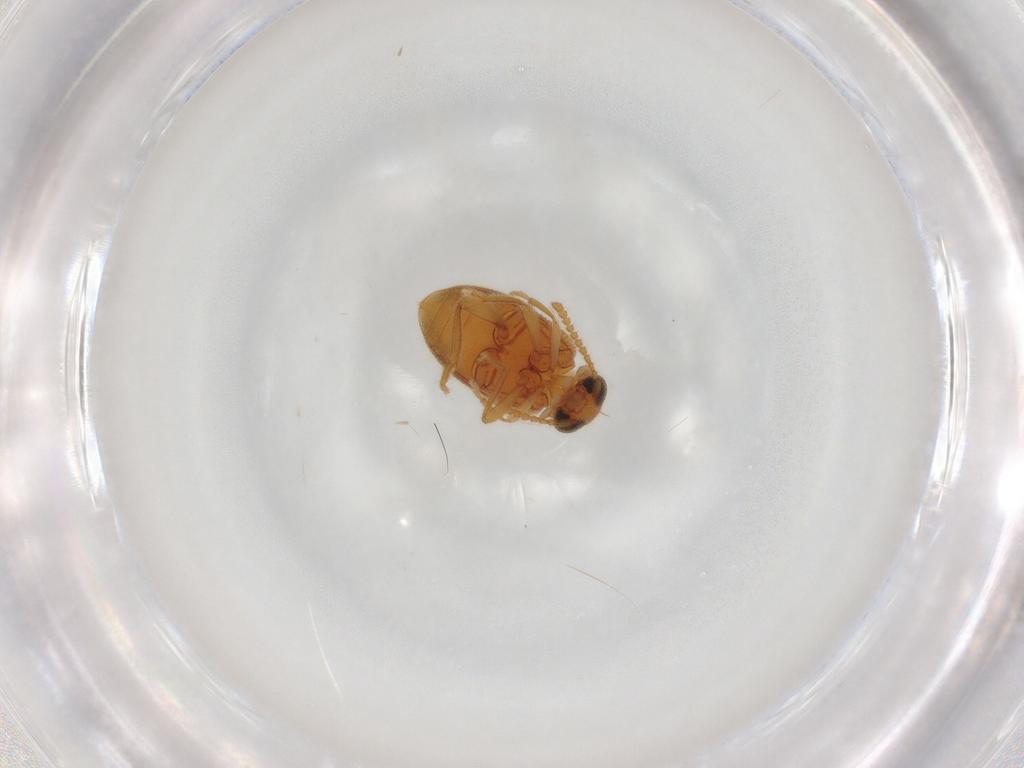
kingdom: Animalia
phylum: Arthropoda
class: Insecta
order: Coleoptera
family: Aderidae
